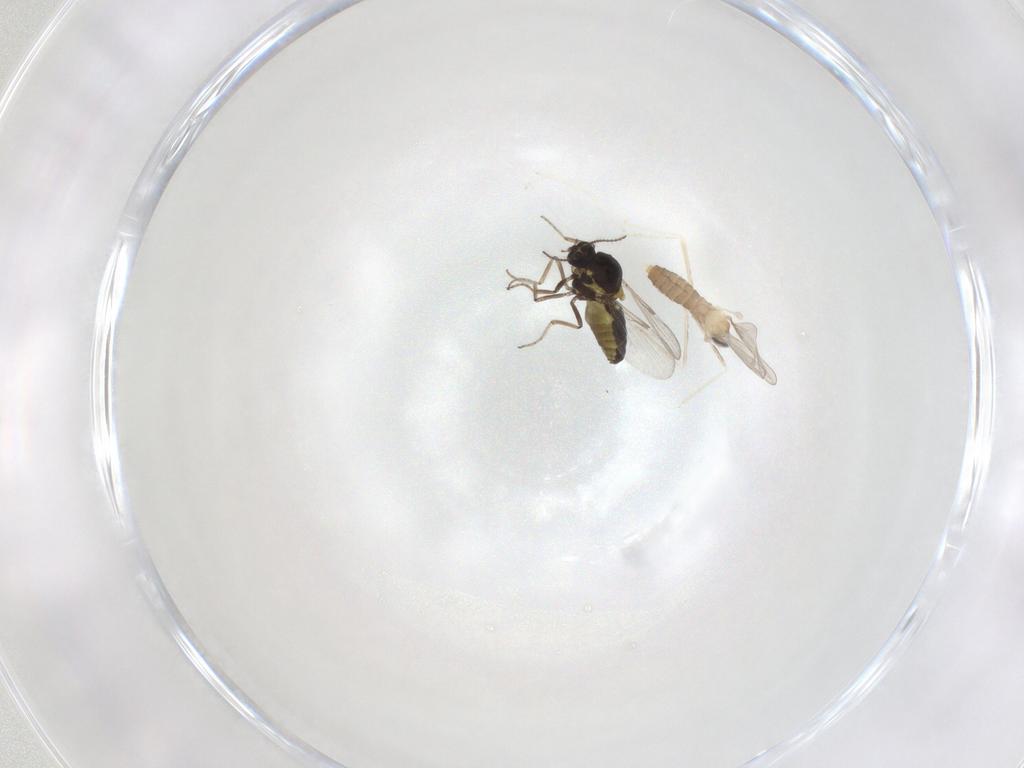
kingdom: Animalia
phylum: Arthropoda
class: Insecta
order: Diptera
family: Ceratopogonidae
